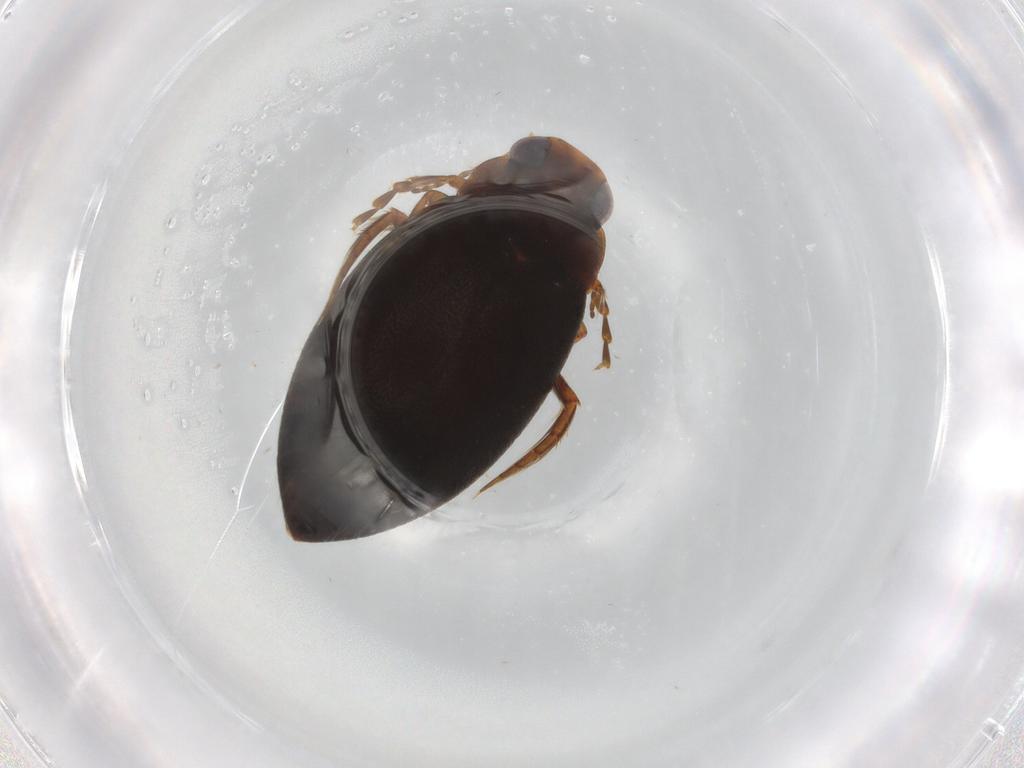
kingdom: Animalia
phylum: Arthropoda
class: Insecta
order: Coleoptera
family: Dytiscidae
